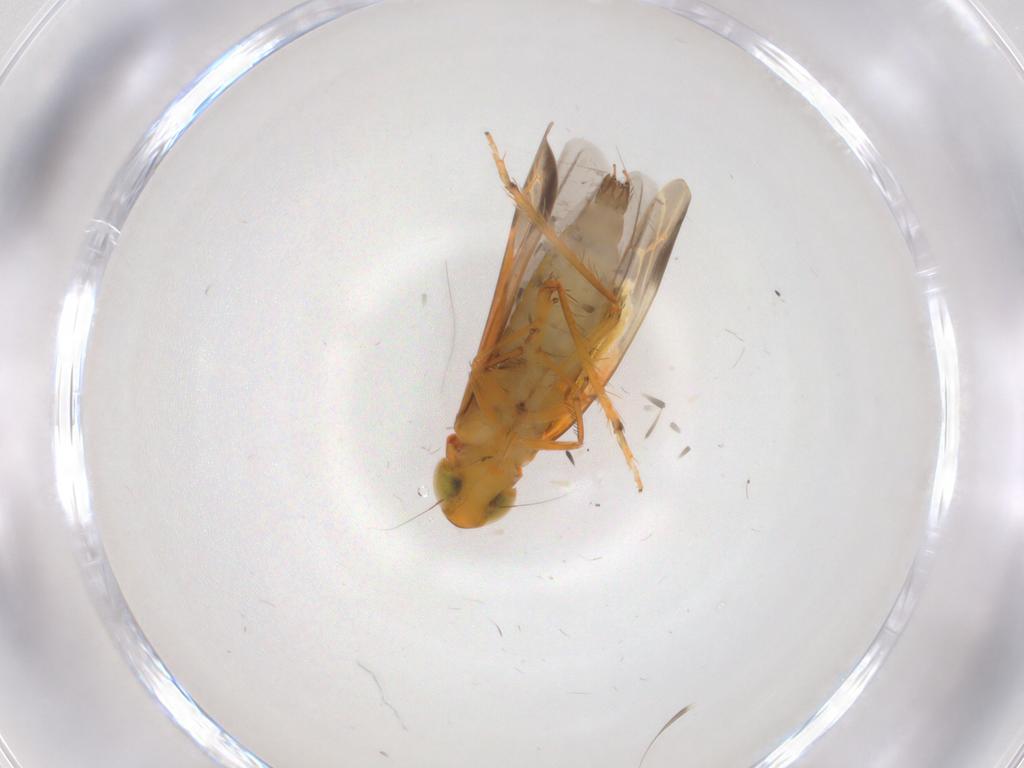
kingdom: Animalia
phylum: Arthropoda
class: Insecta
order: Hemiptera
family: Cicadellidae
